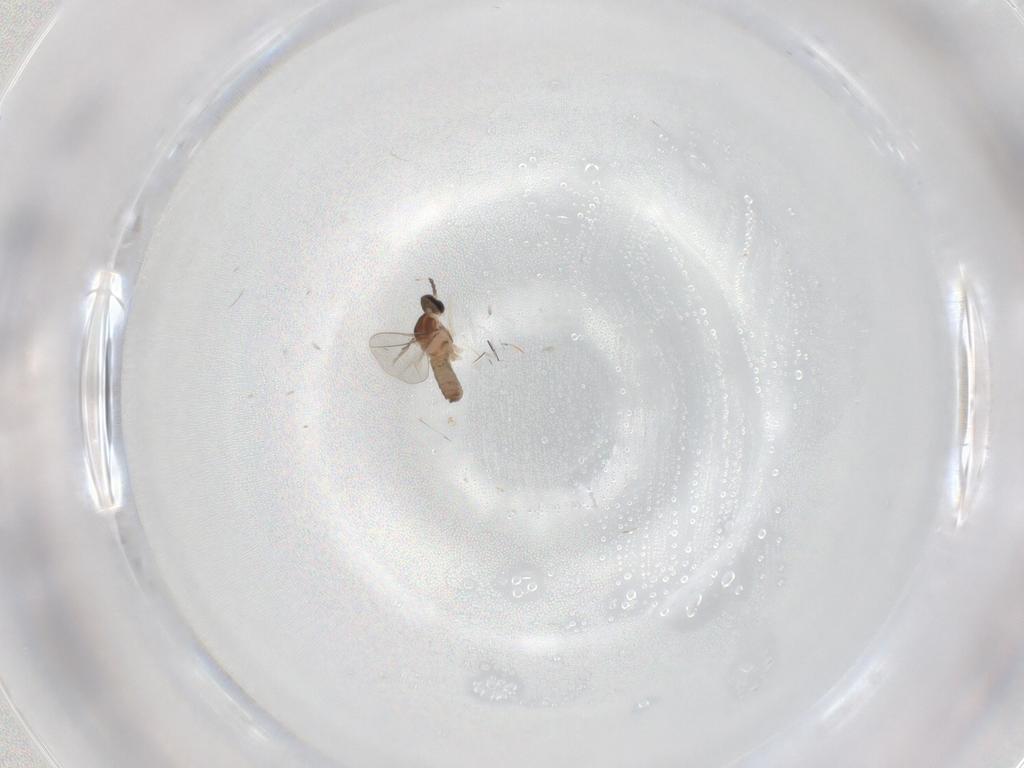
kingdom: Animalia
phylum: Arthropoda
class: Insecta
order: Diptera
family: Cecidomyiidae
